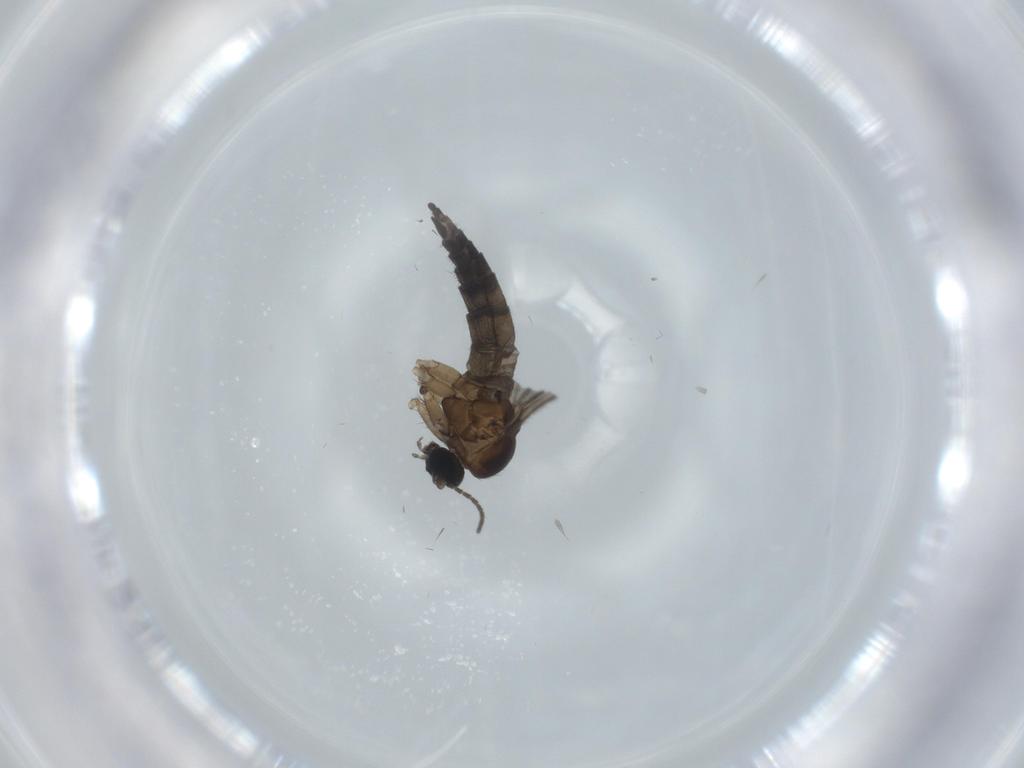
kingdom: Animalia
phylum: Arthropoda
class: Insecta
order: Diptera
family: Sciaridae
